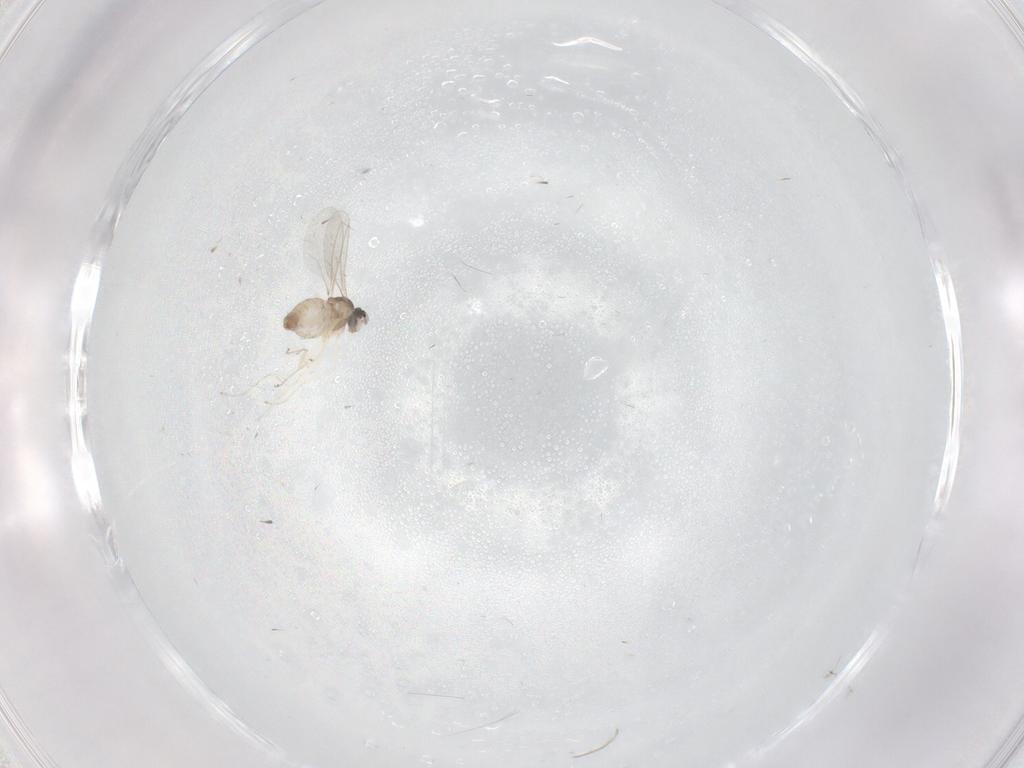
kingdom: Animalia
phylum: Arthropoda
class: Insecta
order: Diptera
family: Cecidomyiidae
